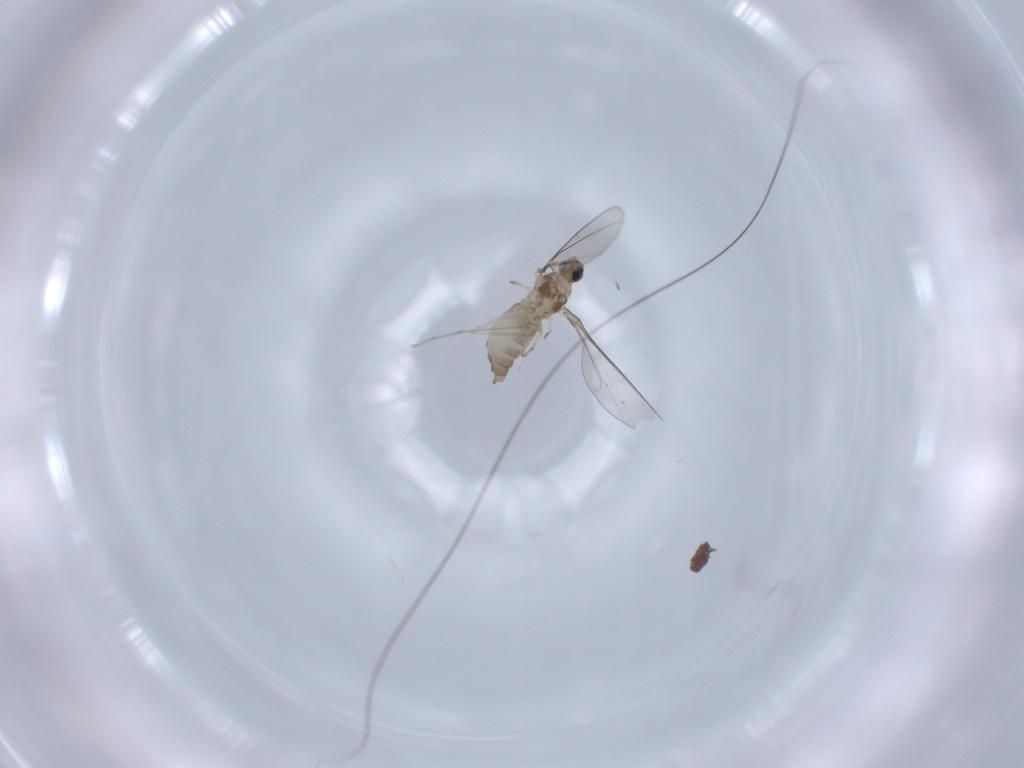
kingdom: Animalia
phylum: Arthropoda
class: Insecta
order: Diptera
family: Cecidomyiidae
